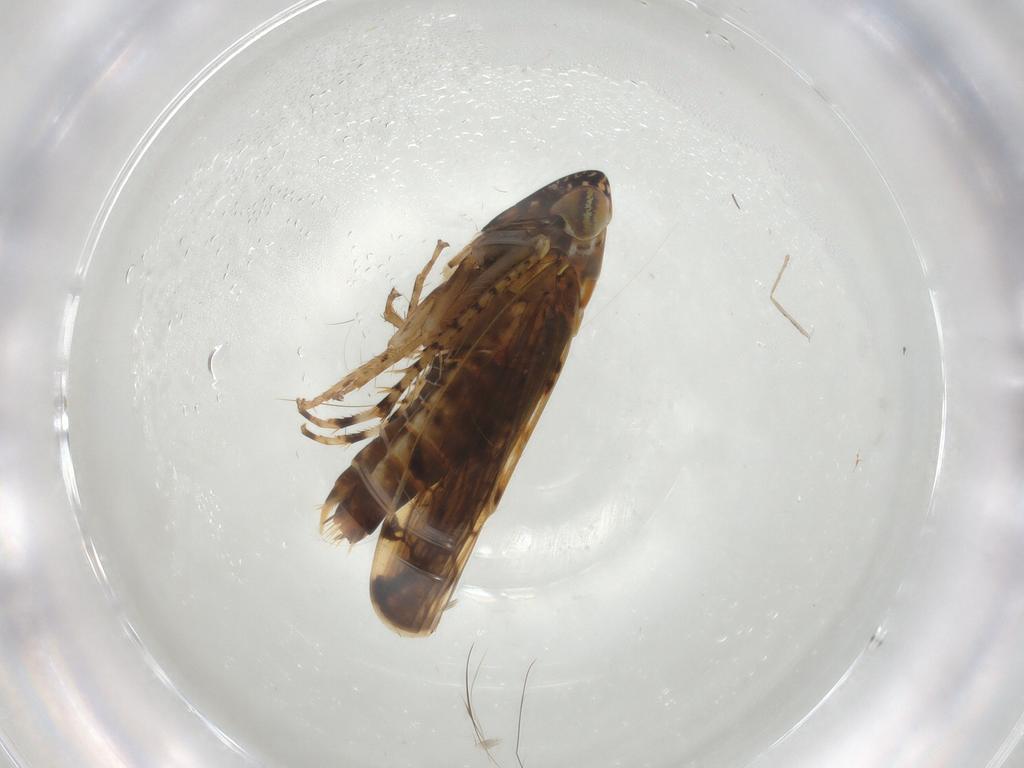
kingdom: Animalia
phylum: Arthropoda
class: Insecta
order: Hemiptera
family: Cicadellidae
